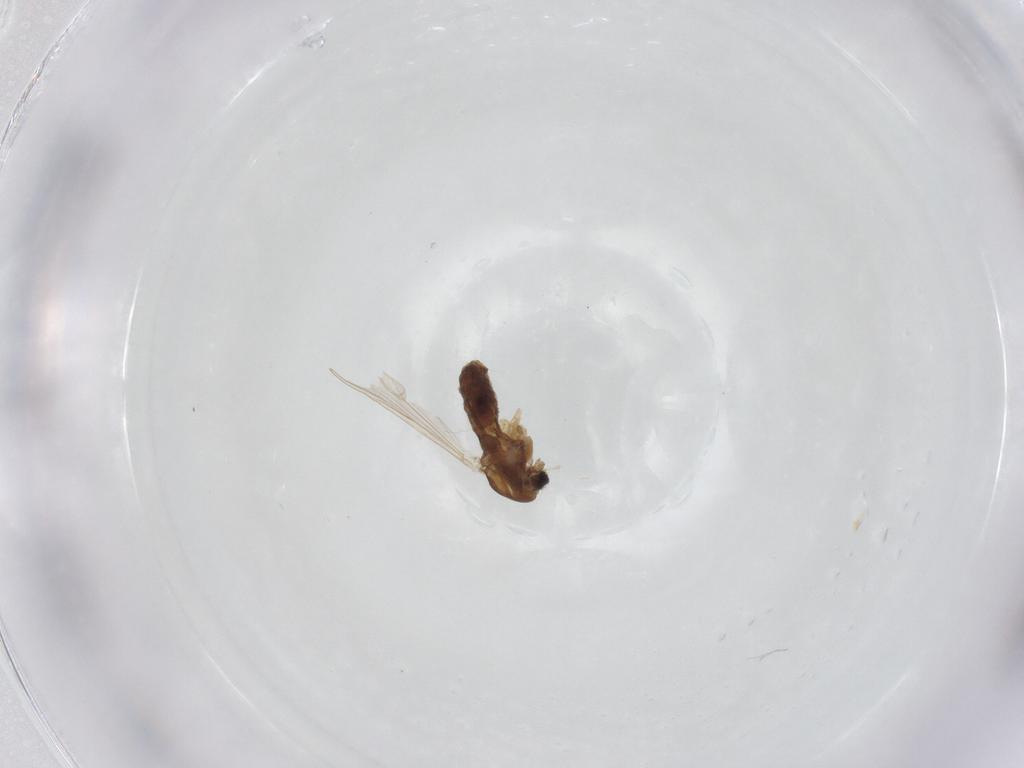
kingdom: Animalia
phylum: Arthropoda
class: Insecta
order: Diptera
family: Chironomidae
